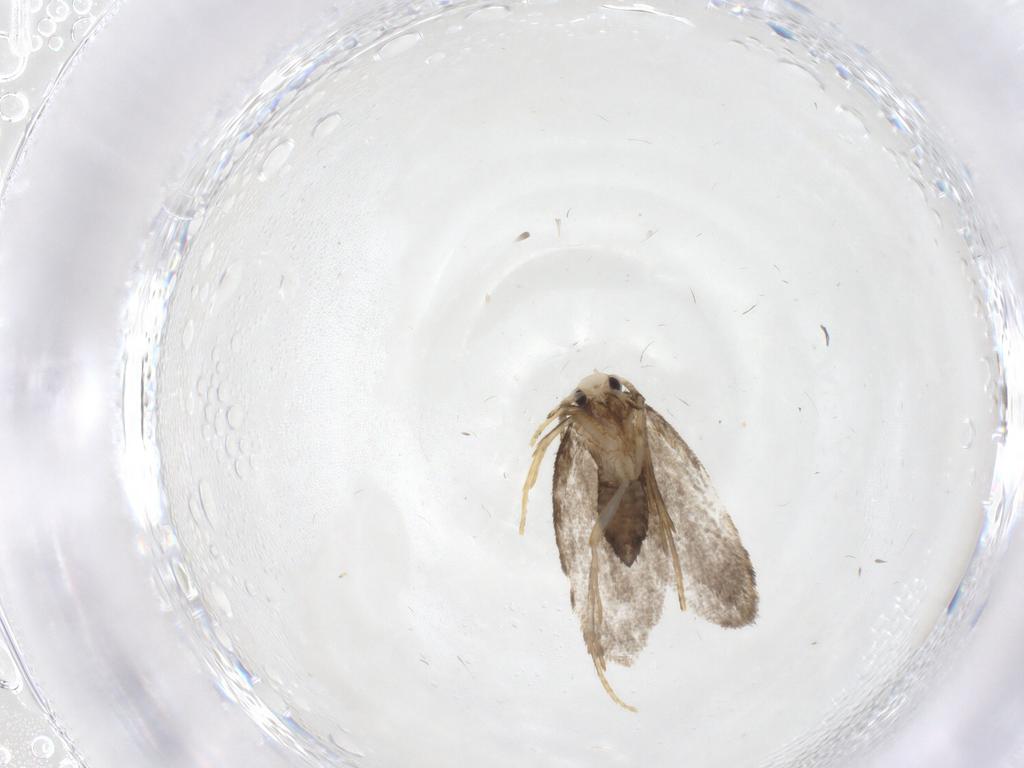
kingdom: Animalia
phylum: Arthropoda
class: Insecta
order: Lepidoptera
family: Psychidae
